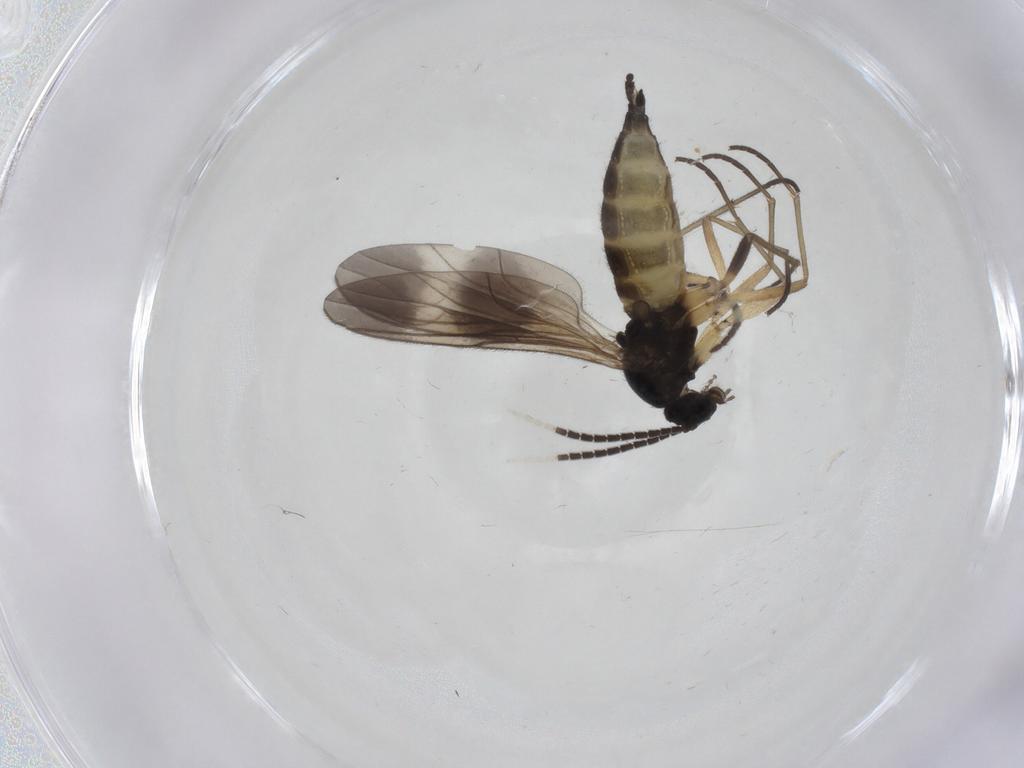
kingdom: Animalia
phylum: Arthropoda
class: Insecta
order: Diptera
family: Sciaridae
